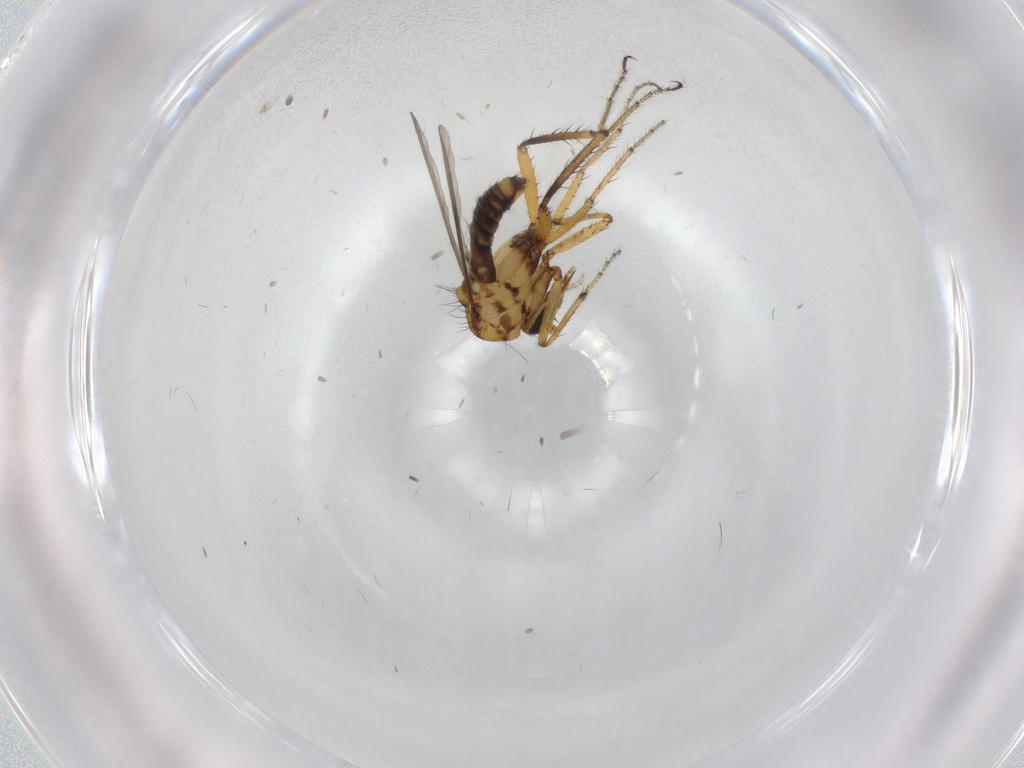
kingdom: Animalia
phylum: Arthropoda
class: Insecta
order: Diptera
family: Ceratopogonidae
